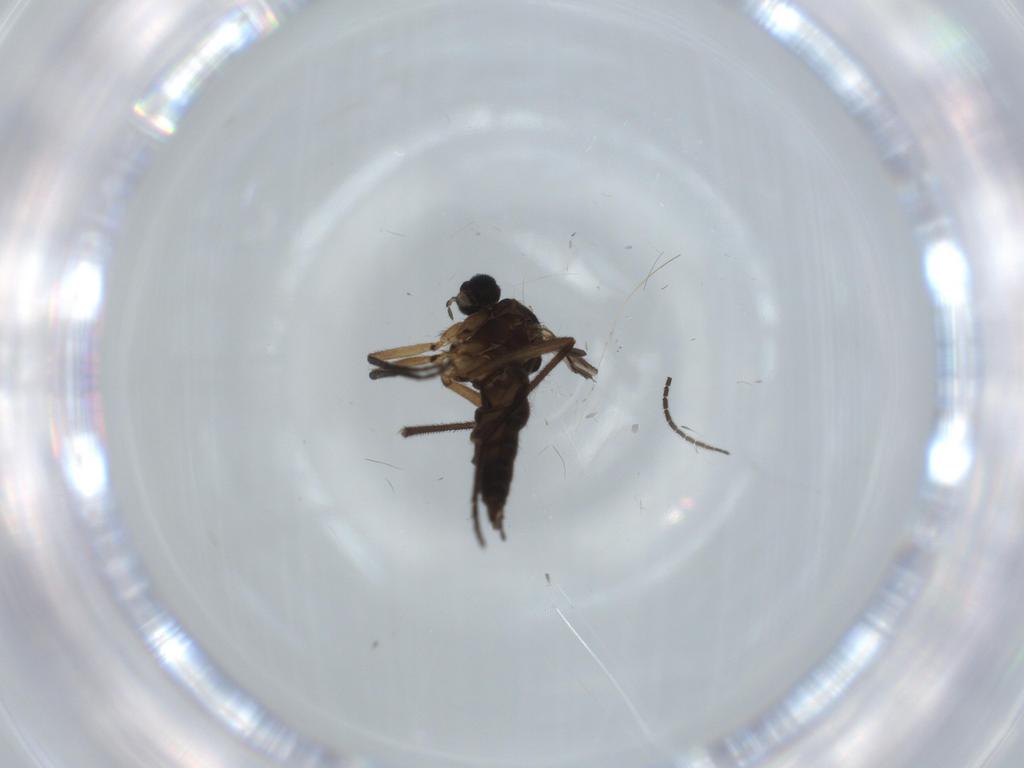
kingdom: Animalia
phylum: Arthropoda
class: Insecta
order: Diptera
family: Sciaridae
